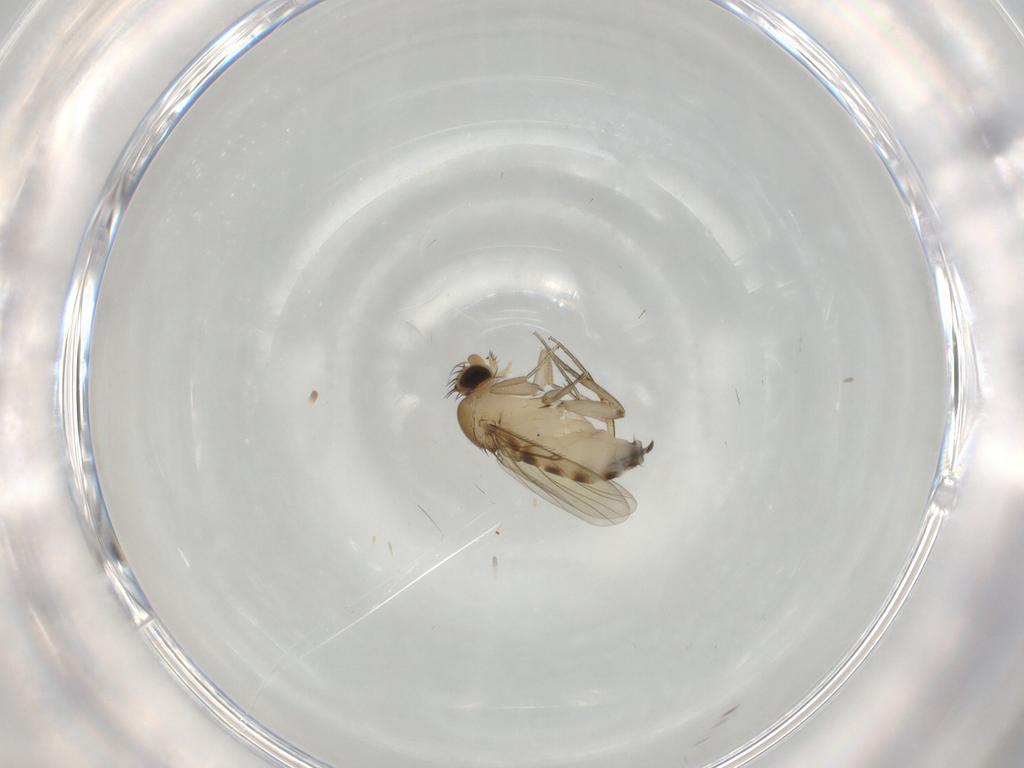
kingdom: Animalia
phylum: Arthropoda
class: Insecta
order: Diptera
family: Phoridae
